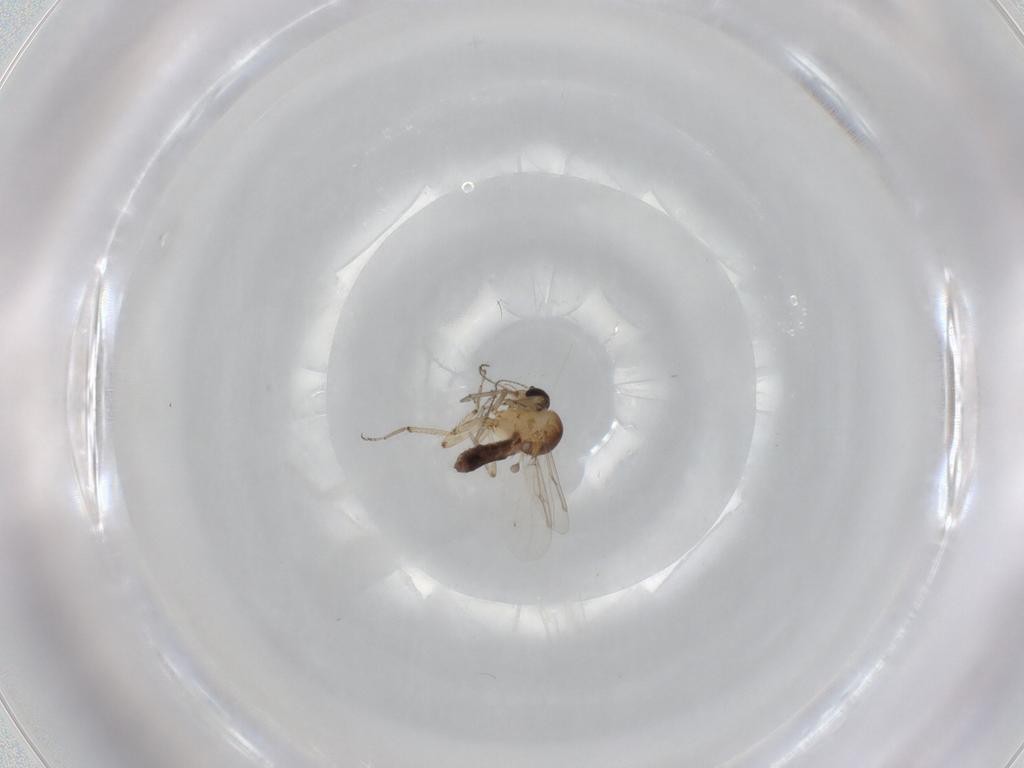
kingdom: Animalia
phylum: Arthropoda
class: Insecta
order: Diptera
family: Ceratopogonidae
